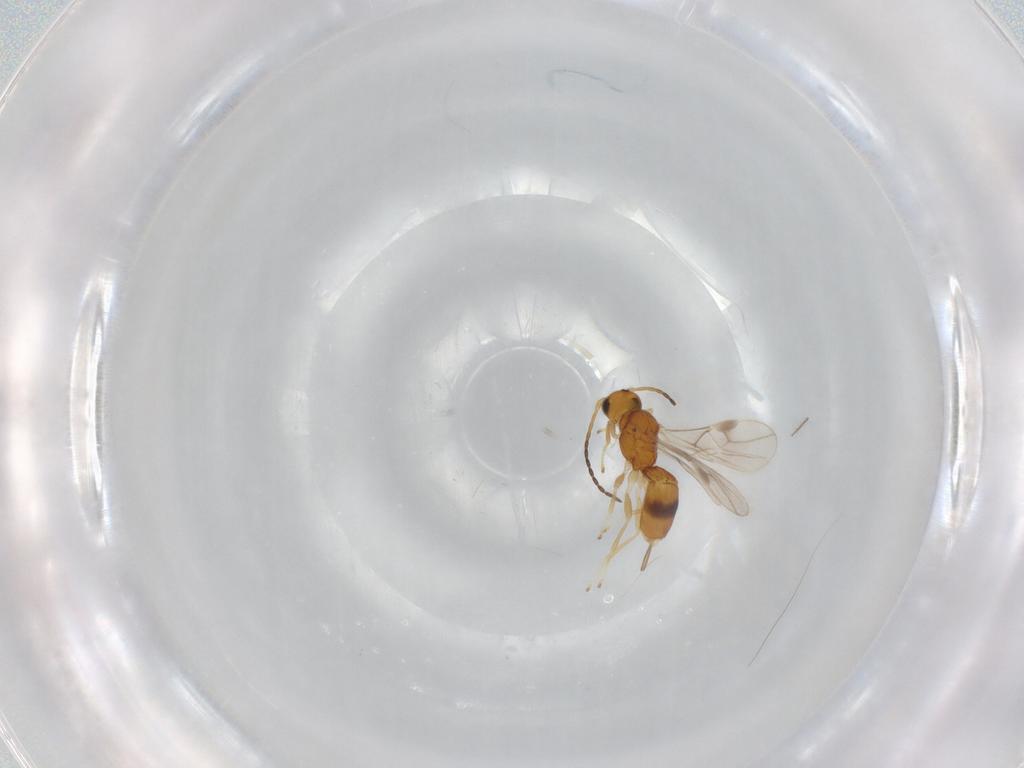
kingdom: Animalia
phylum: Arthropoda
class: Insecta
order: Hymenoptera
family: Braconidae
